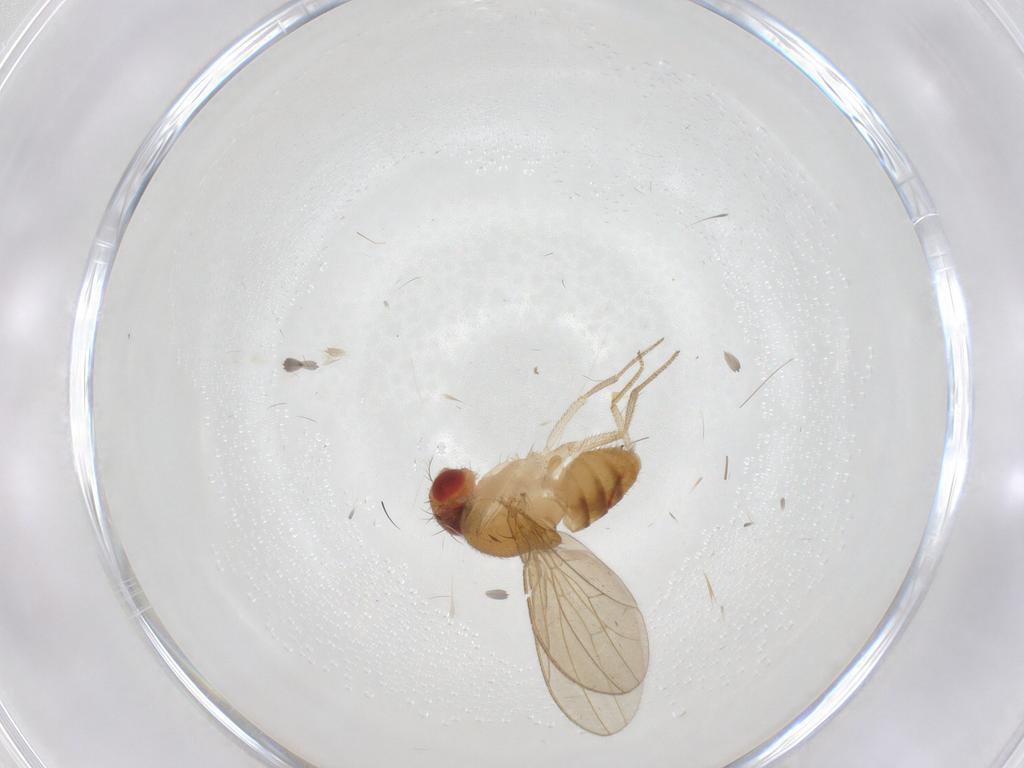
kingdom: Animalia
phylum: Arthropoda
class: Insecta
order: Diptera
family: Drosophilidae
